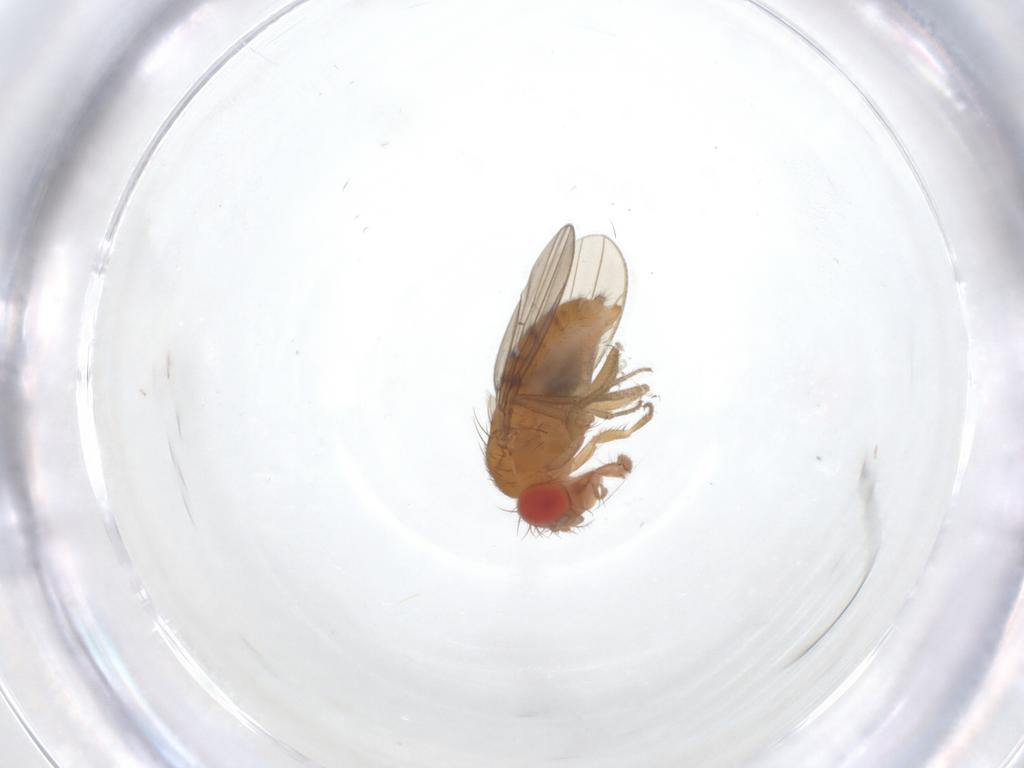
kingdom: Animalia
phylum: Arthropoda
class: Insecta
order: Diptera
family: Drosophilidae
